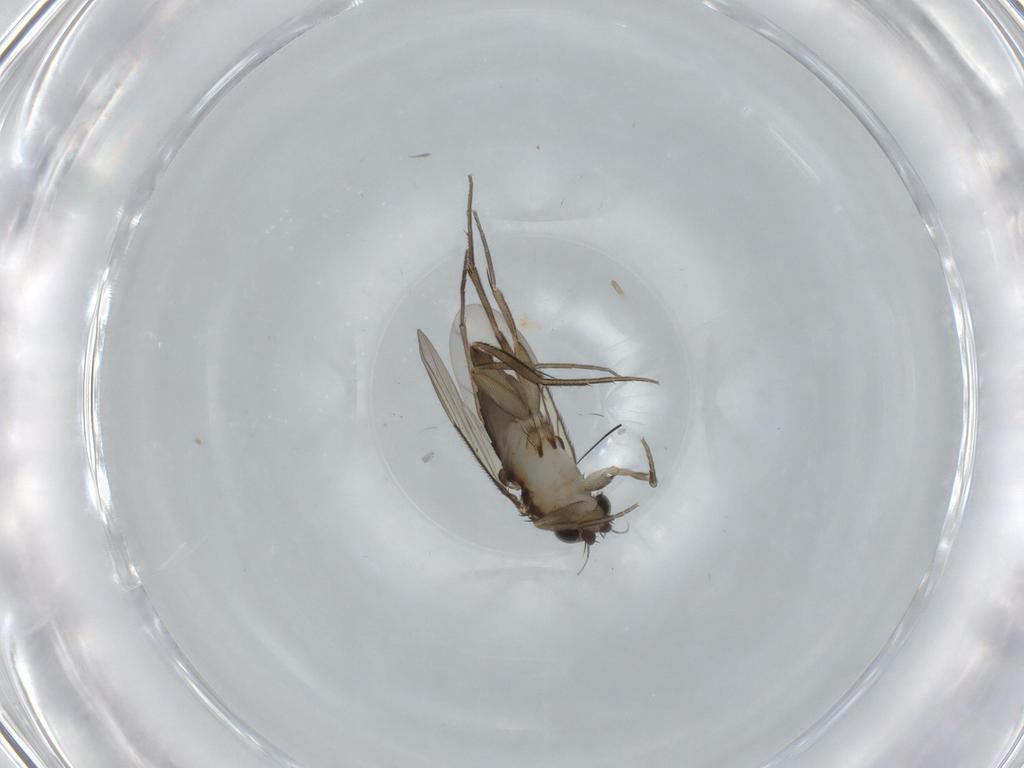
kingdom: Animalia
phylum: Arthropoda
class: Insecta
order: Diptera
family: Phoridae
